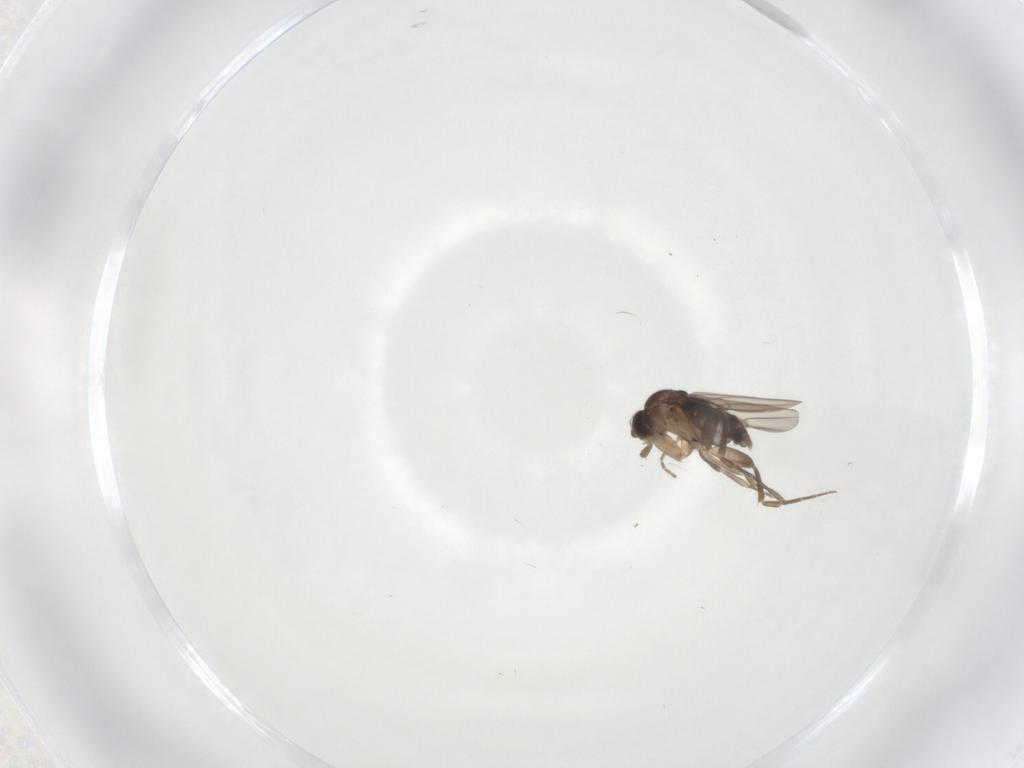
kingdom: Animalia
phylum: Arthropoda
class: Insecta
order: Diptera
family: Phoridae
